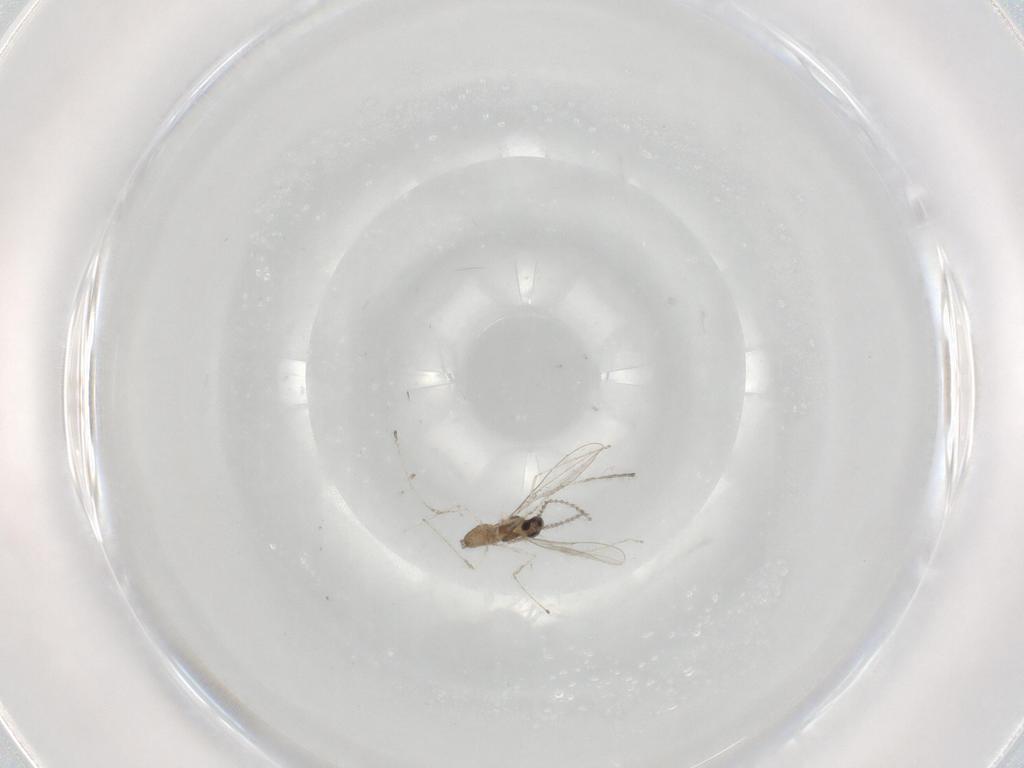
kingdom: Animalia
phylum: Arthropoda
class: Insecta
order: Diptera
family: Cecidomyiidae
